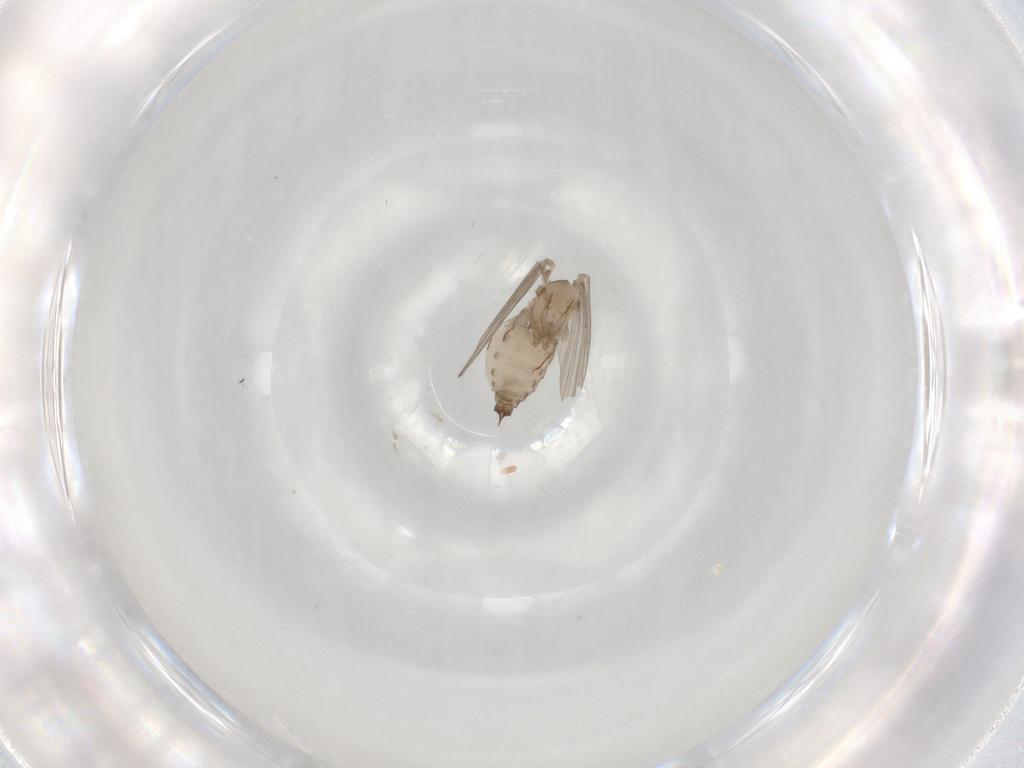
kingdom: Animalia
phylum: Arthropoda
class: Insecta
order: Diptera
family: Psychodidae
